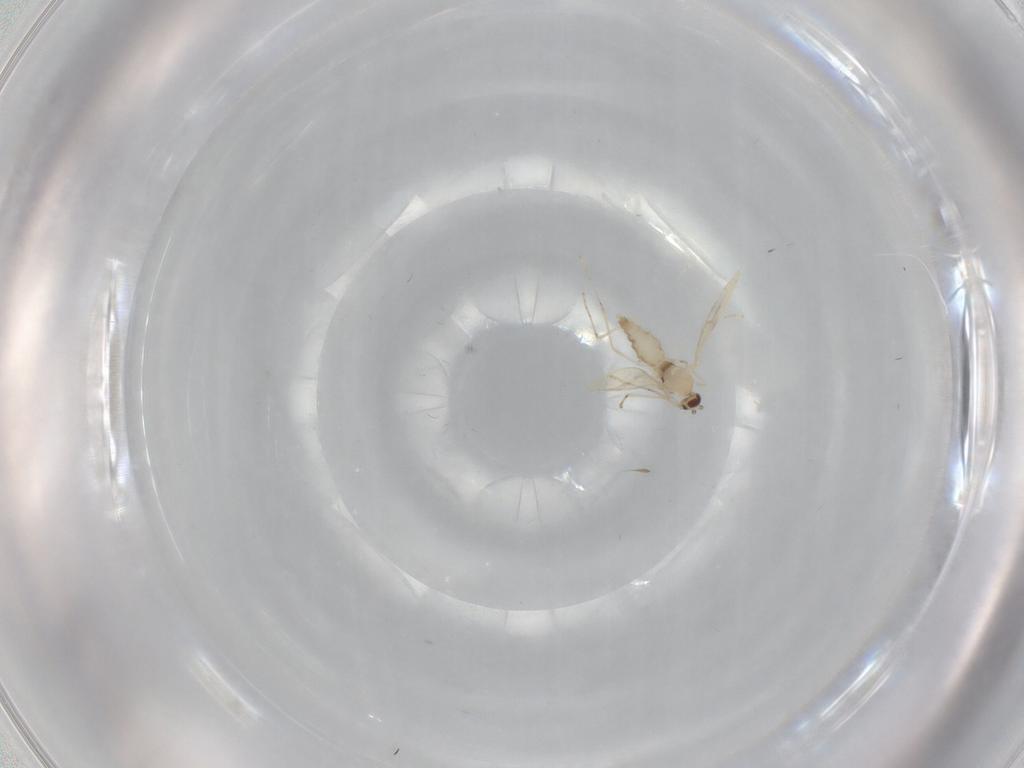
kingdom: Animalia
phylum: Arthropoda
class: Insecta
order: Diptera
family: Cecidomyiidae
